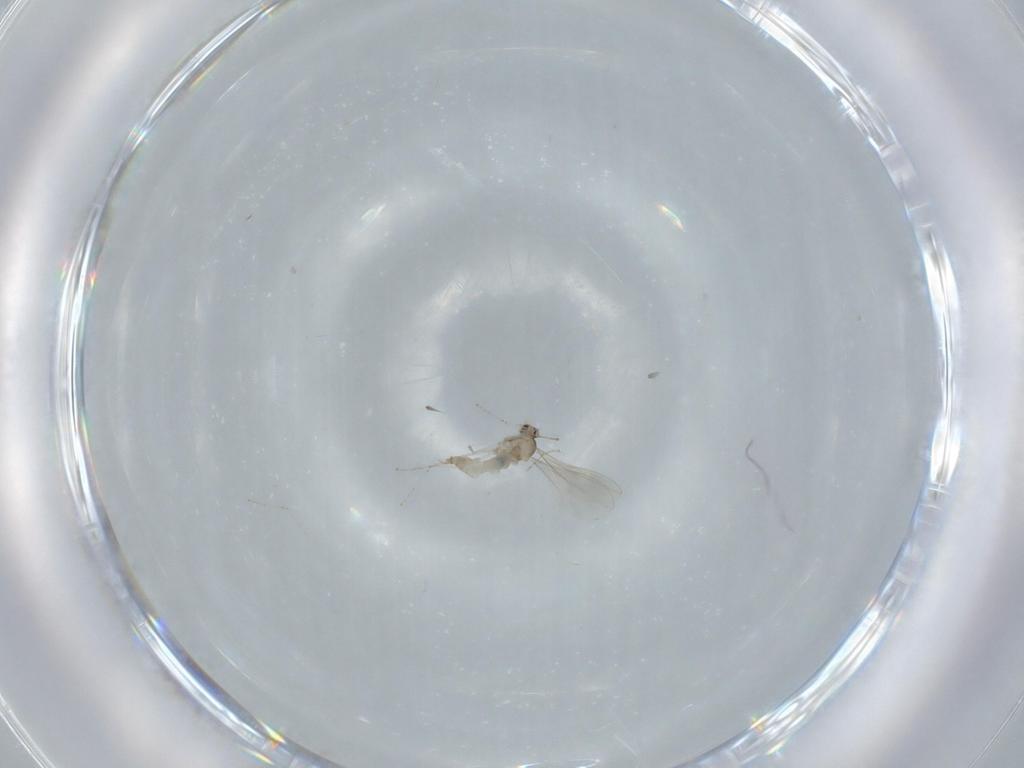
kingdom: Animalia
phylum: Arthropoda
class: Insecta
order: Diptera
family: Cecidomyiidae
